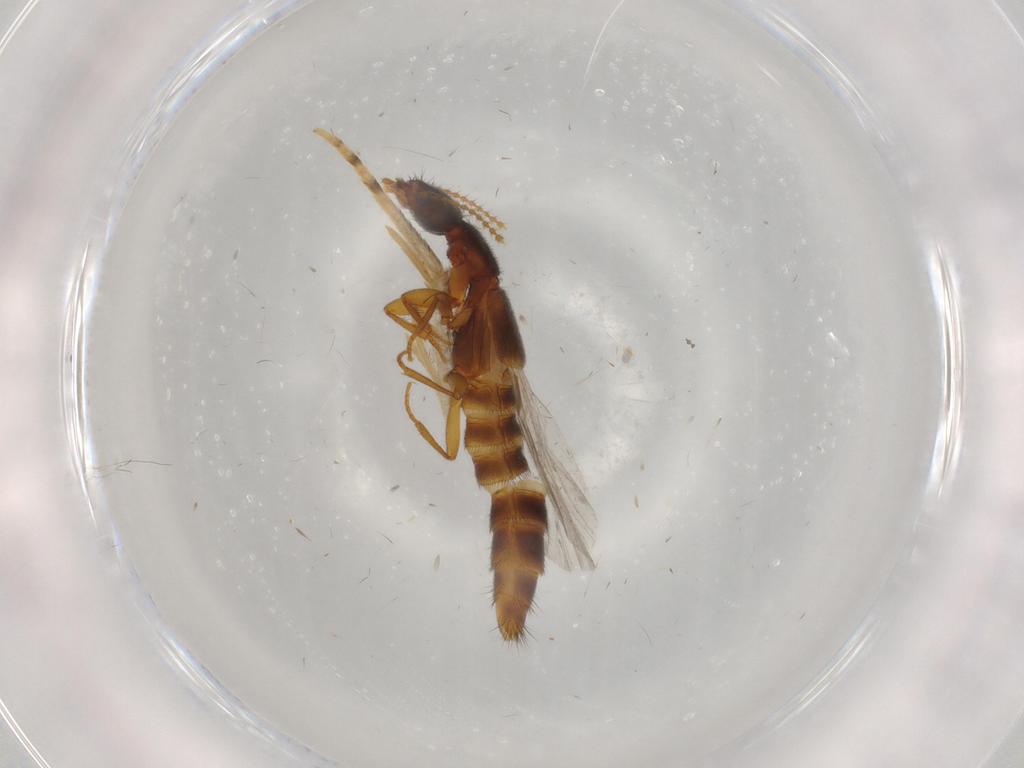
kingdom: Animalia
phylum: Arthropoda
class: Insecta
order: Coleoptera
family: Staphylinidae
